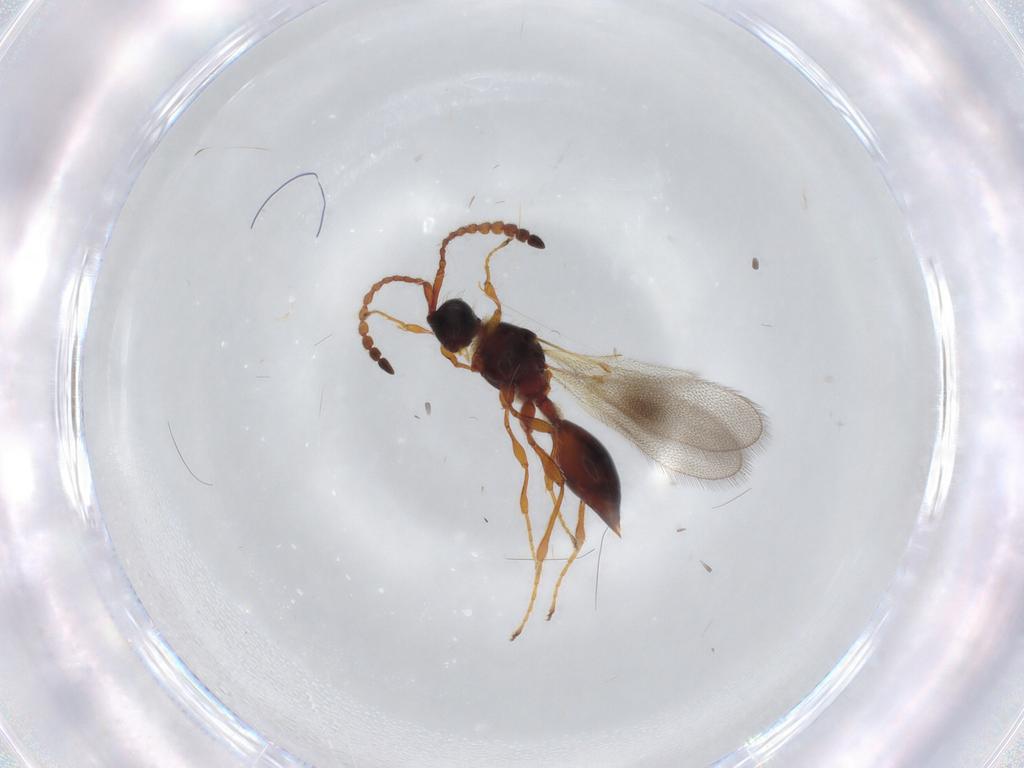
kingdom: Animalia
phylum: Arthropoda
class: Insecta
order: Hymenoptera
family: Diapriidae
